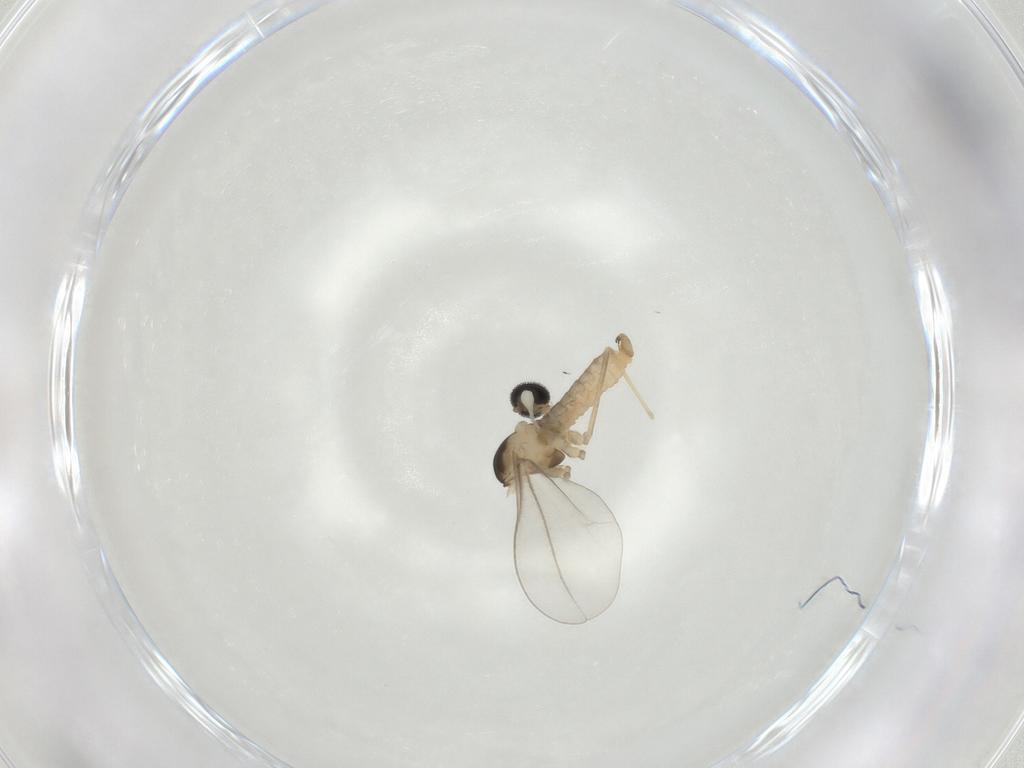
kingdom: Animalia
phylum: Arthropoda
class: Insecta
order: Diptera
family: Cecidomyiidae
